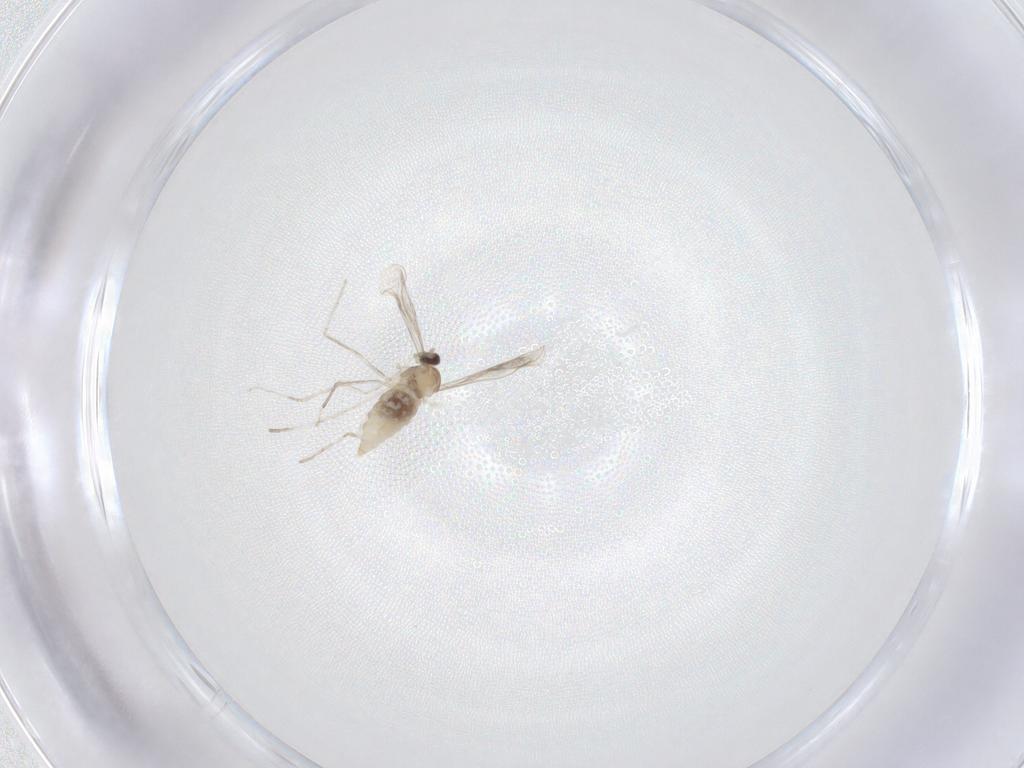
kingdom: Animalia
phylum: Arthropoda
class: Insecta
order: Diptera
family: Cecidomyiidae
